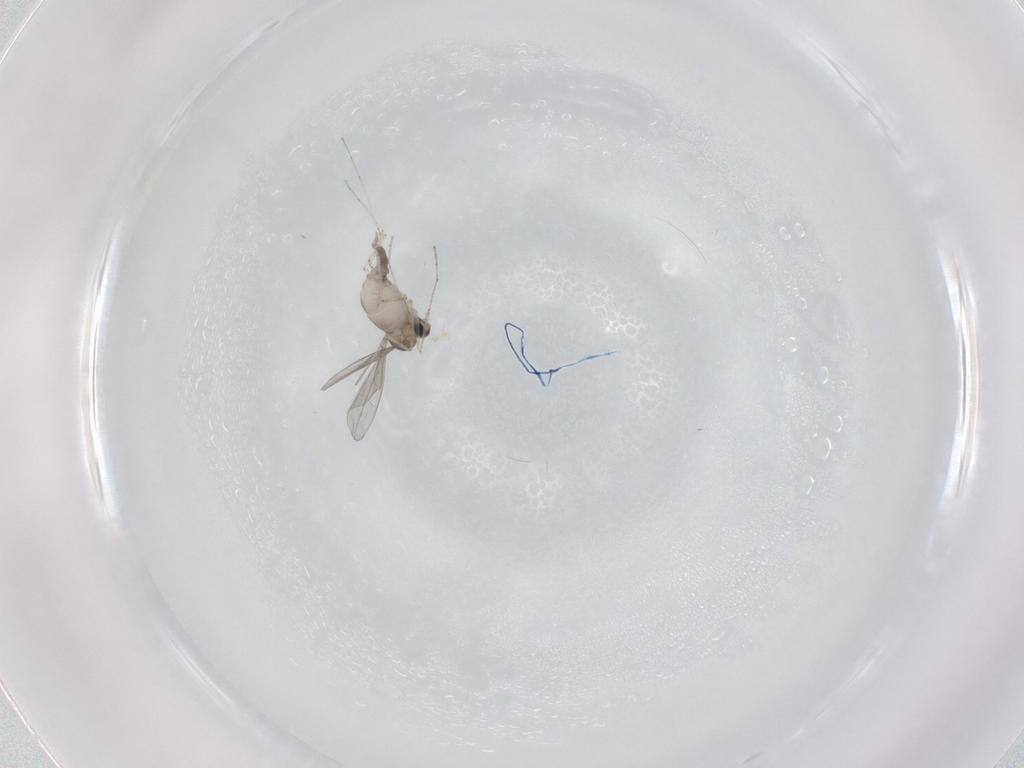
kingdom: Animalia
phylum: Arthropoda
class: Insecta
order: Diptera
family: Cecidomyiidae
